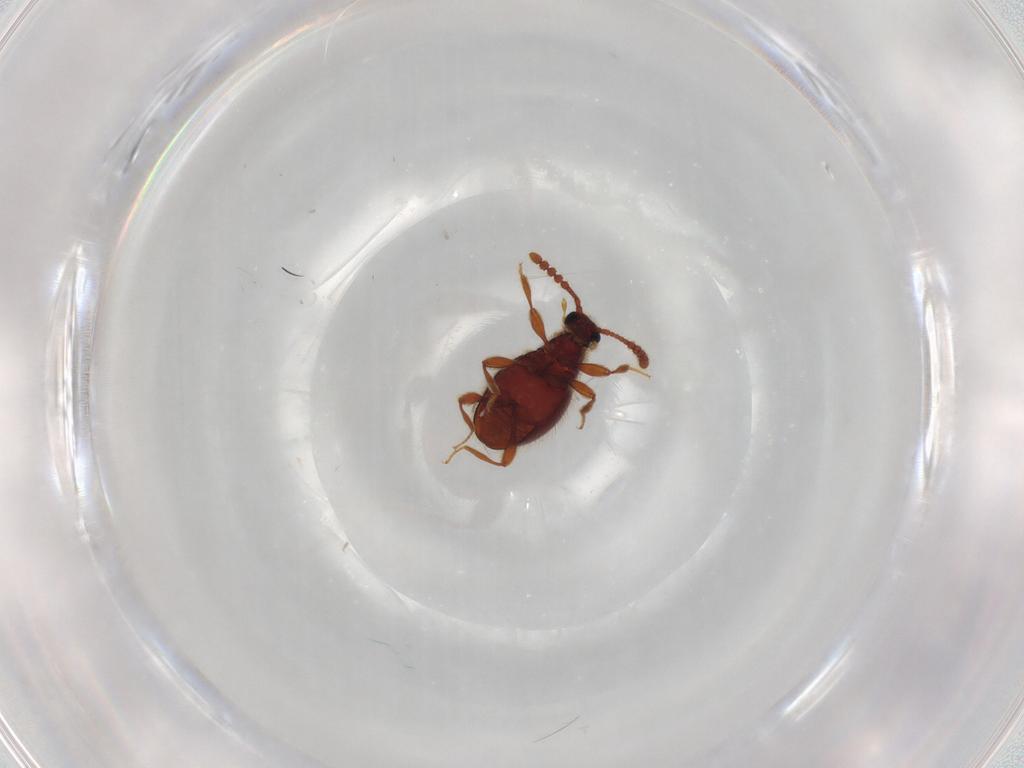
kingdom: Animalia
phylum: Arthropoda
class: Insecta
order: Coleoptera
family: Staphylinidae
